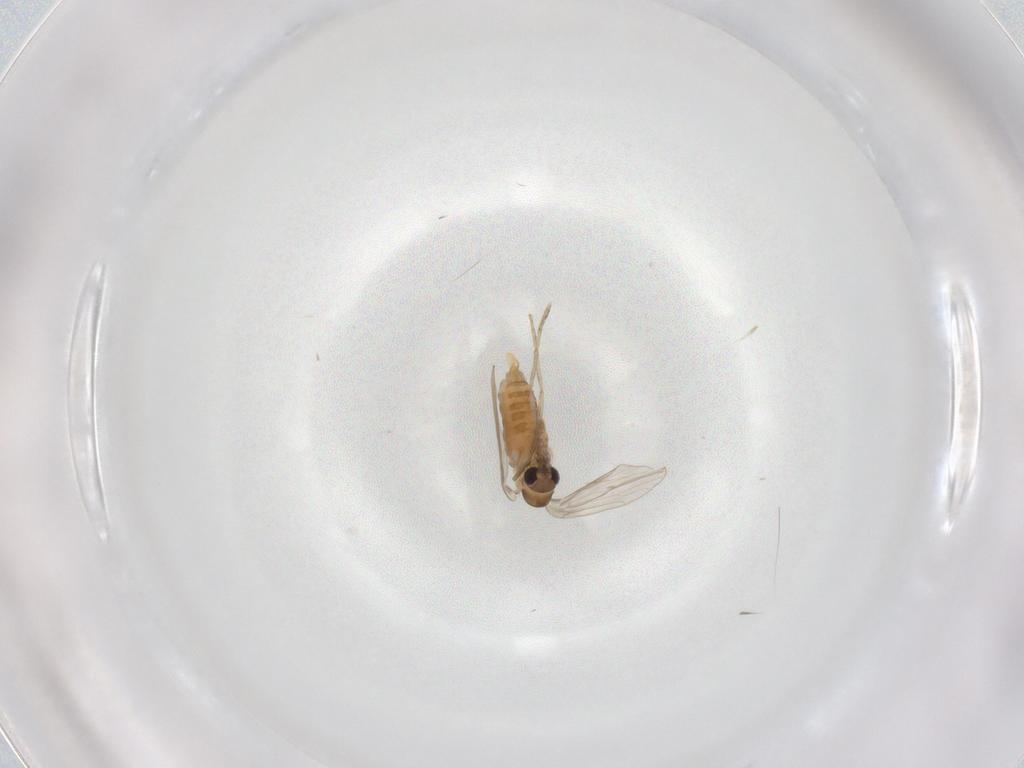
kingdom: Animalia
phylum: Arthropoda
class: Insecta
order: Diptera
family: Psychodidae
